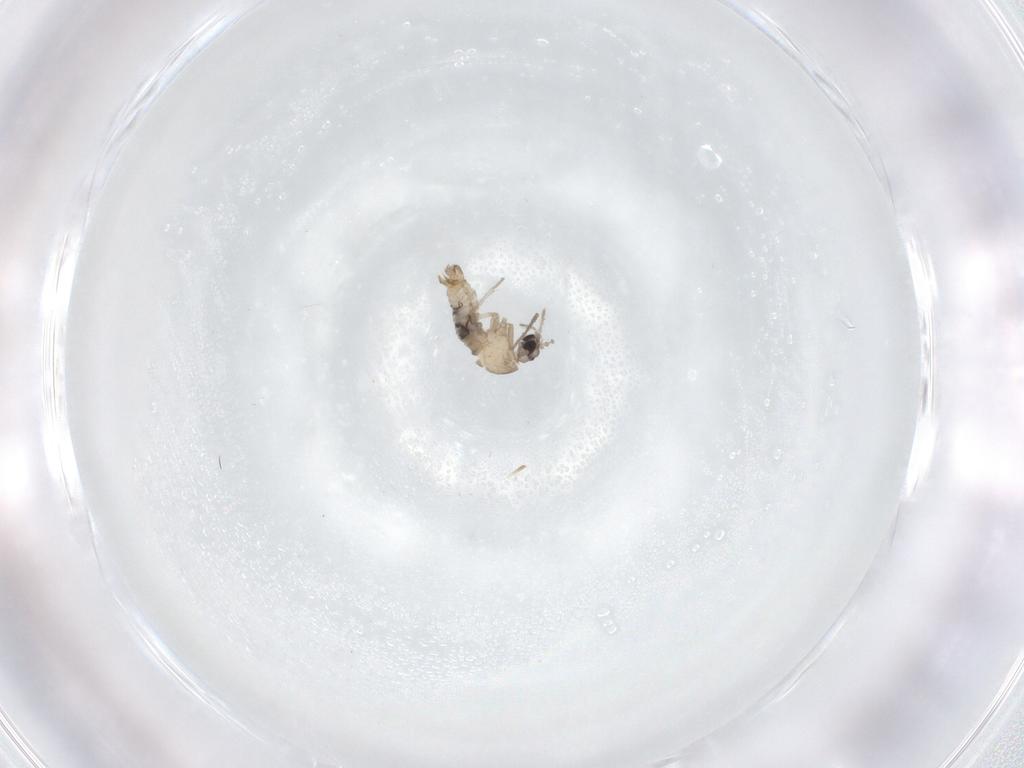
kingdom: Animalia
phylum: Arthropoda
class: Insecta
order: Diptera
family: Psychodidae
